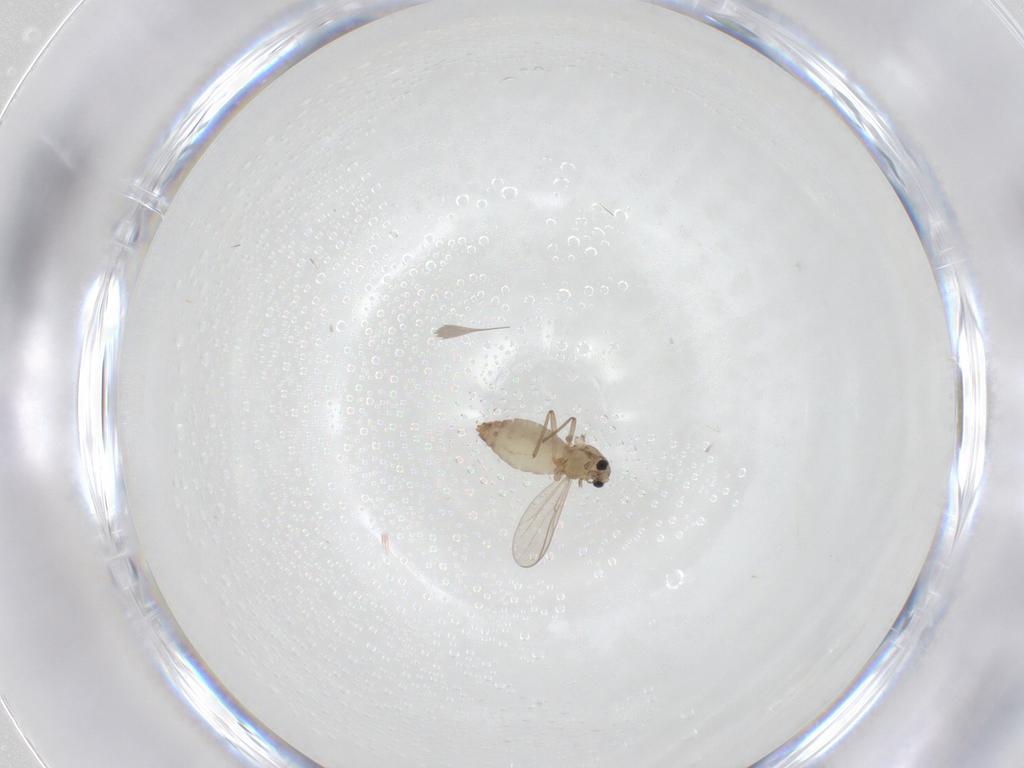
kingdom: Animalia
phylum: Arthropoda
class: Insecta
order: Diptera
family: Chironomidae
